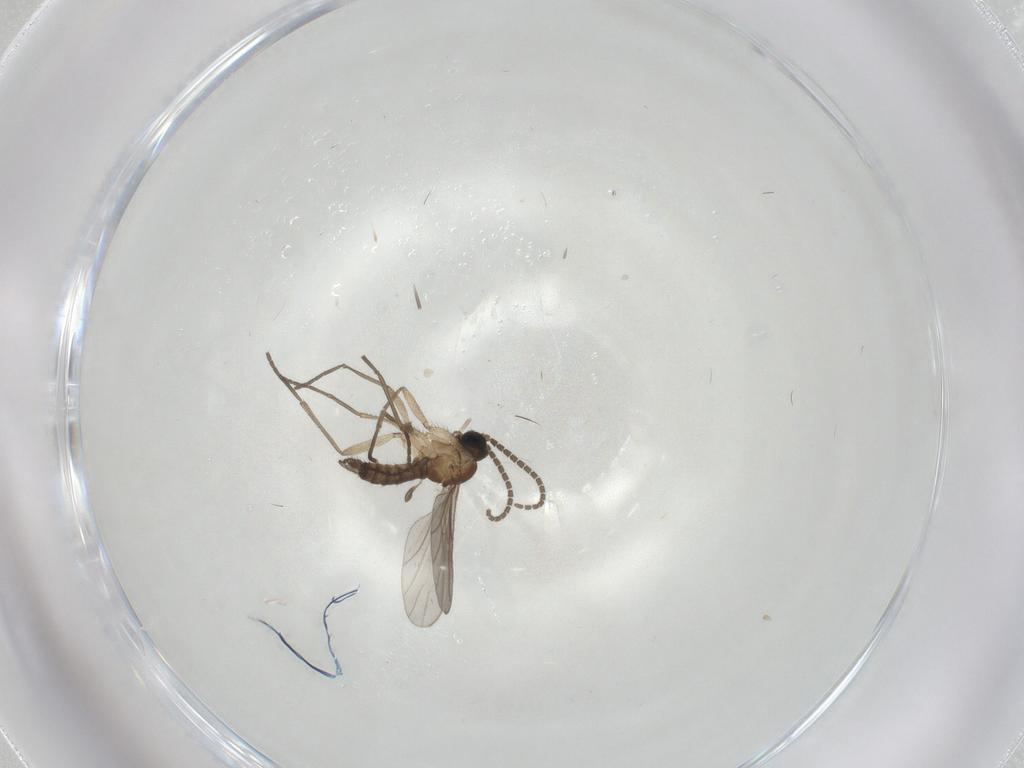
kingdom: Animalia
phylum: Arthropoda
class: Insecta
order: Diptera
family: Sciaridae
